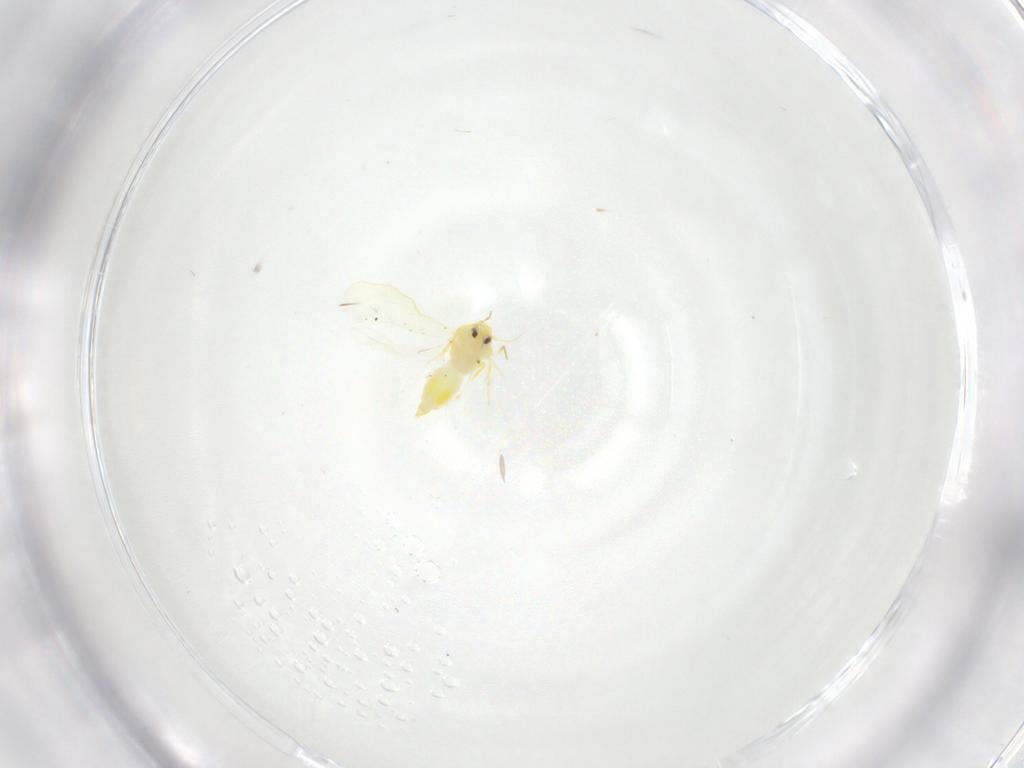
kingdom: Animalia
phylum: Arthropoda
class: Insecta
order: Hemiptera
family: Aleyrodidae
